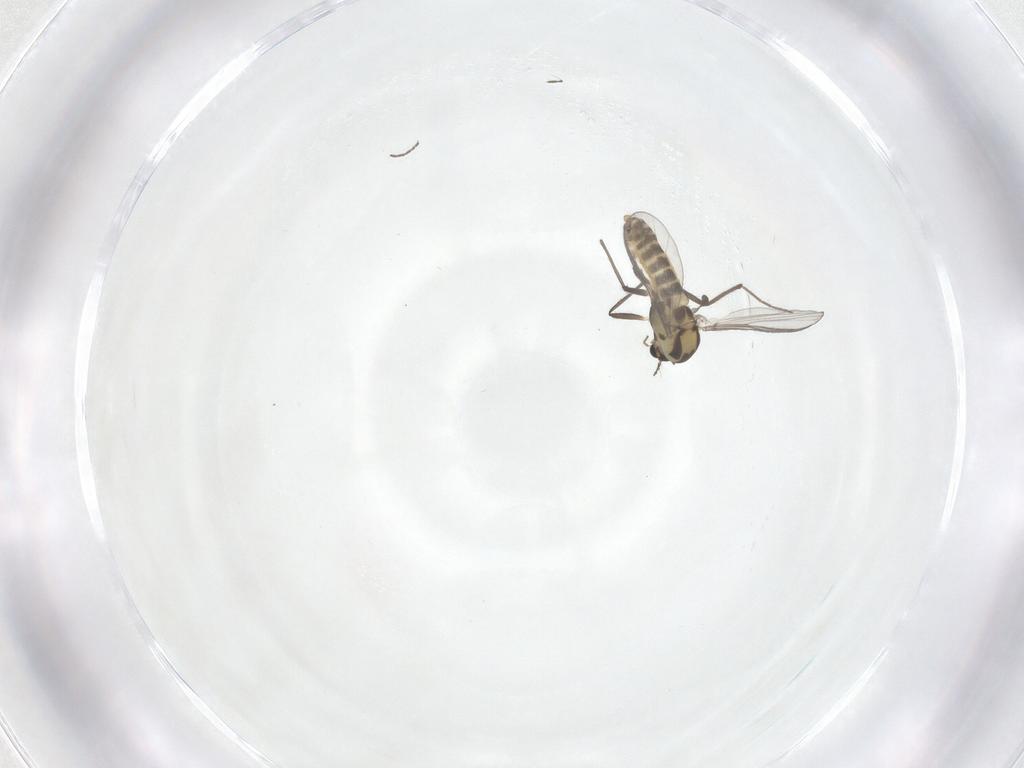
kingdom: Animalia
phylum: Arthropoda
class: Insecta
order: Diptera
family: Chironomidae
